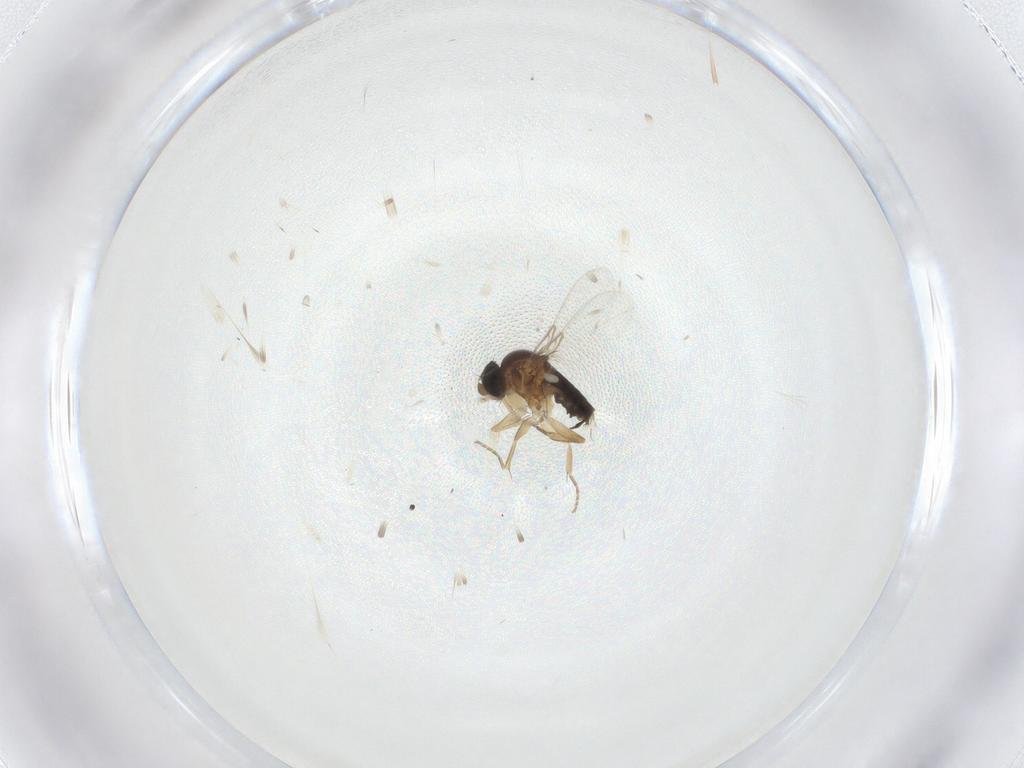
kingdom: Animalia
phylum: Arthropoda
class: Insecta
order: Diptera
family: Phoridae
